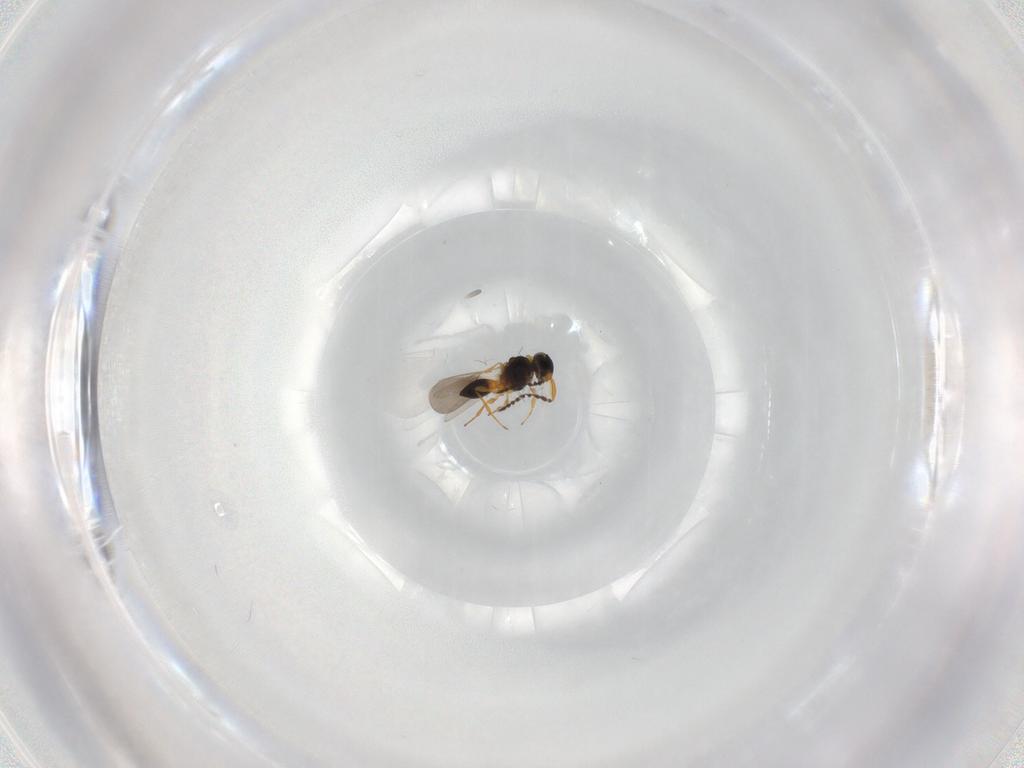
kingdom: Animalia
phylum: Arthropoda
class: Insecta
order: Hymenoptera
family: Platygastridae
